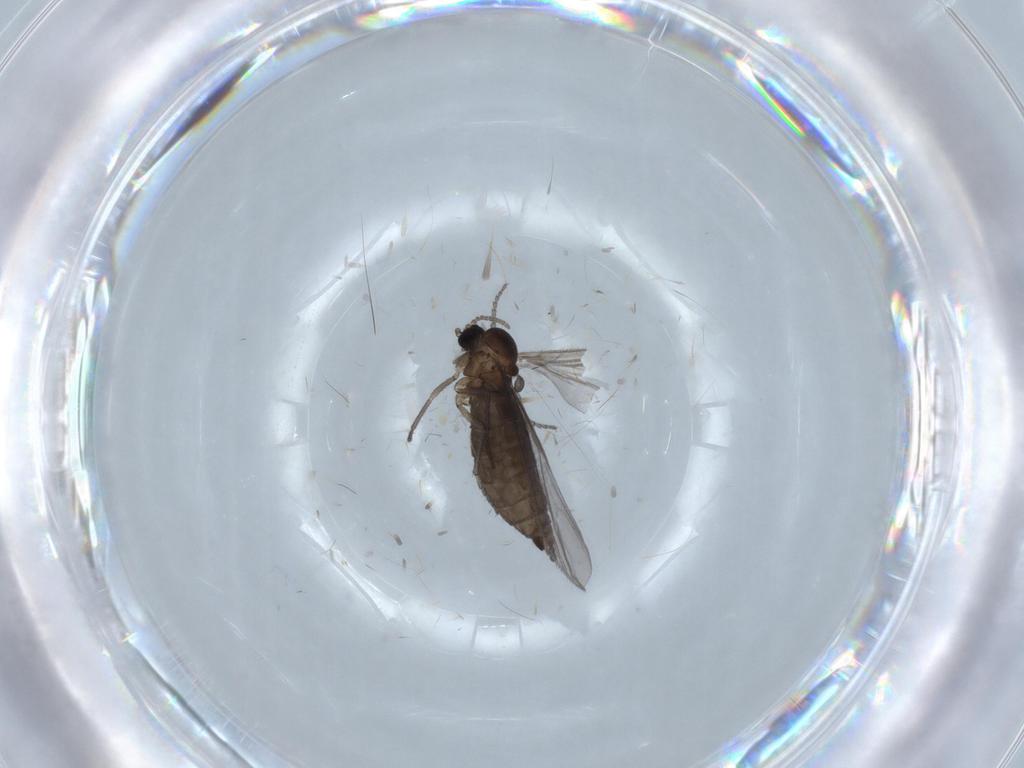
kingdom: Animalia
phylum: Arthropoda
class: Insecta
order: Diptera
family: Sciaridae
